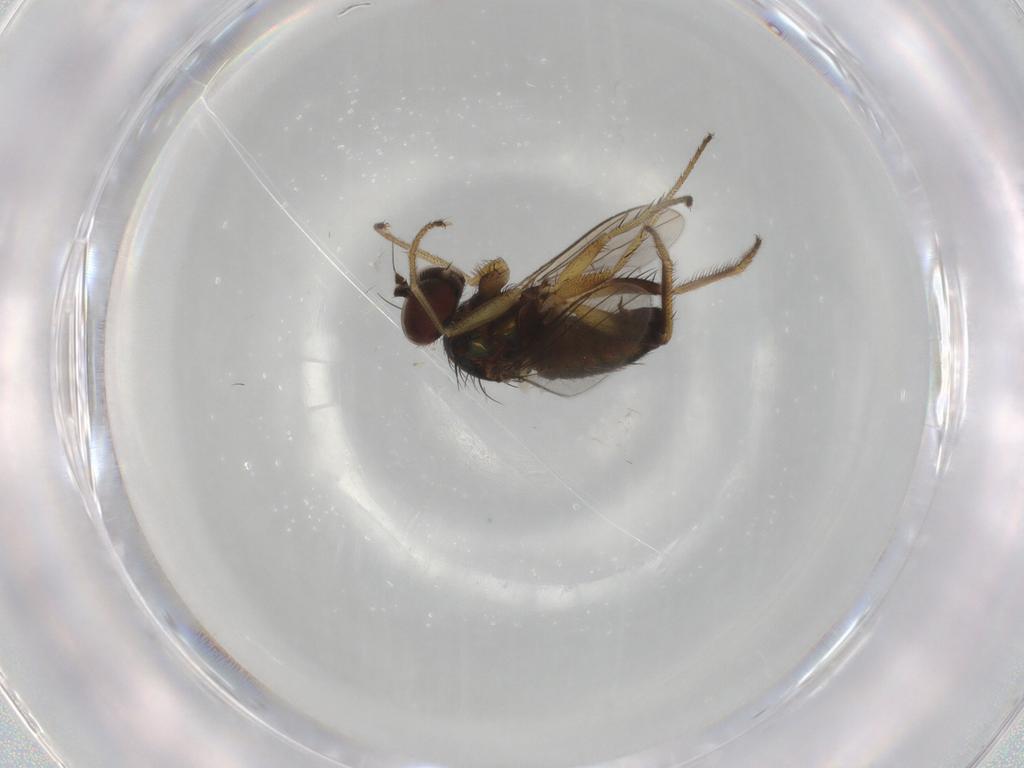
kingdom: Animalia
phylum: Arthropoda
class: Insecta
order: Diptera
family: Dolichopodidae
